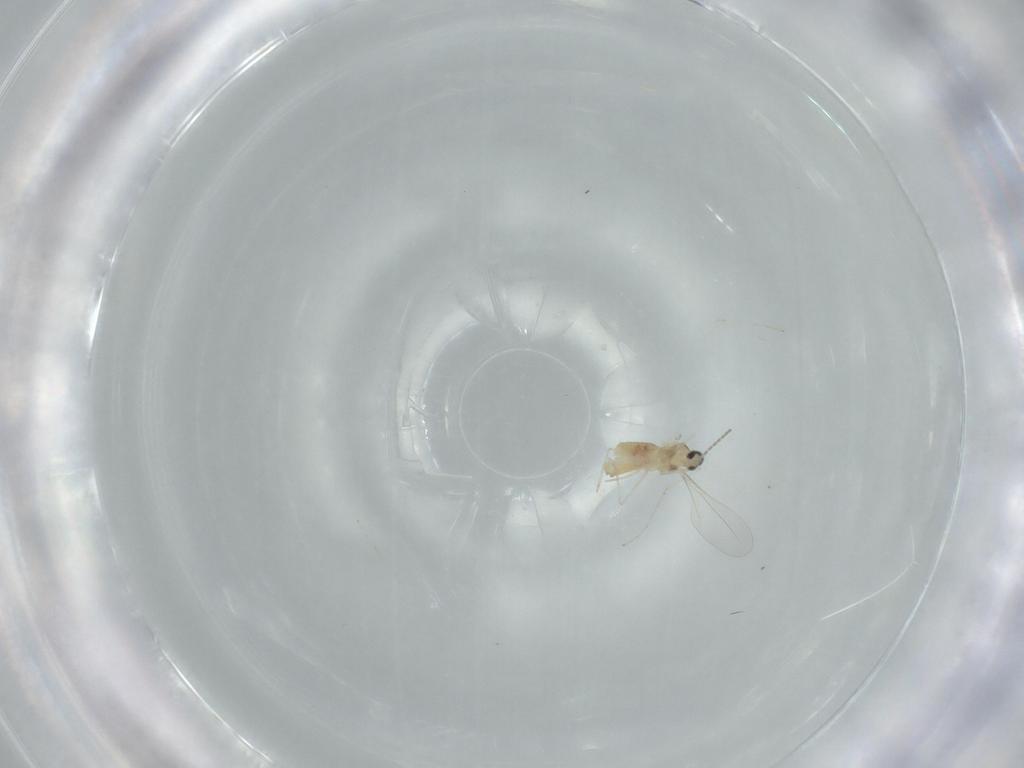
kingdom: Animalia
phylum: Arthropoda
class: Insecta
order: Diptera
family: Cecidomyiidae
